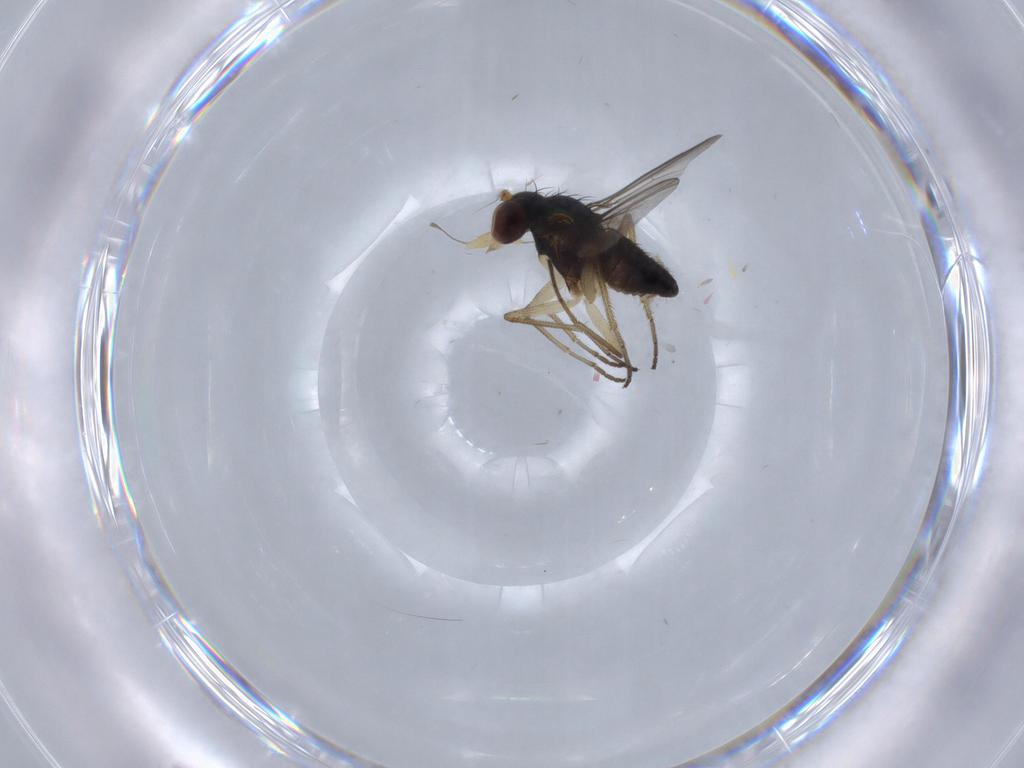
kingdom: Animalia
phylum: Arthropoda
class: Insecta
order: Diptera
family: Dolichopodidae
